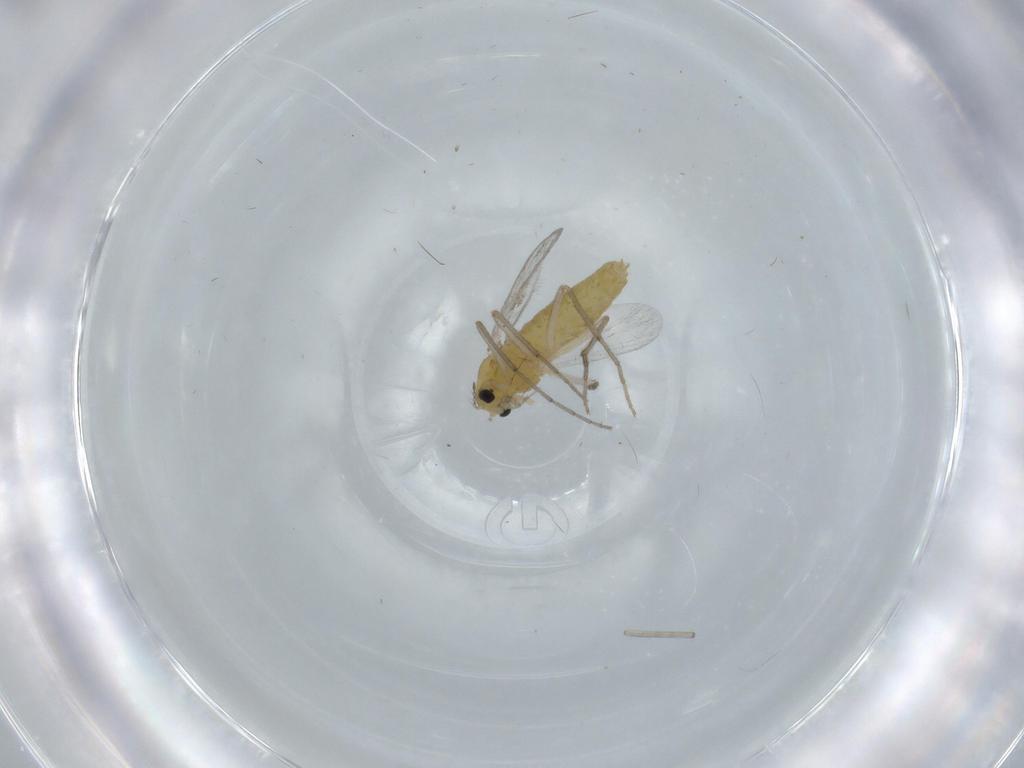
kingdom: Animalia
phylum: Arthropoda
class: Insecta
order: Diptera
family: Chironomidae
